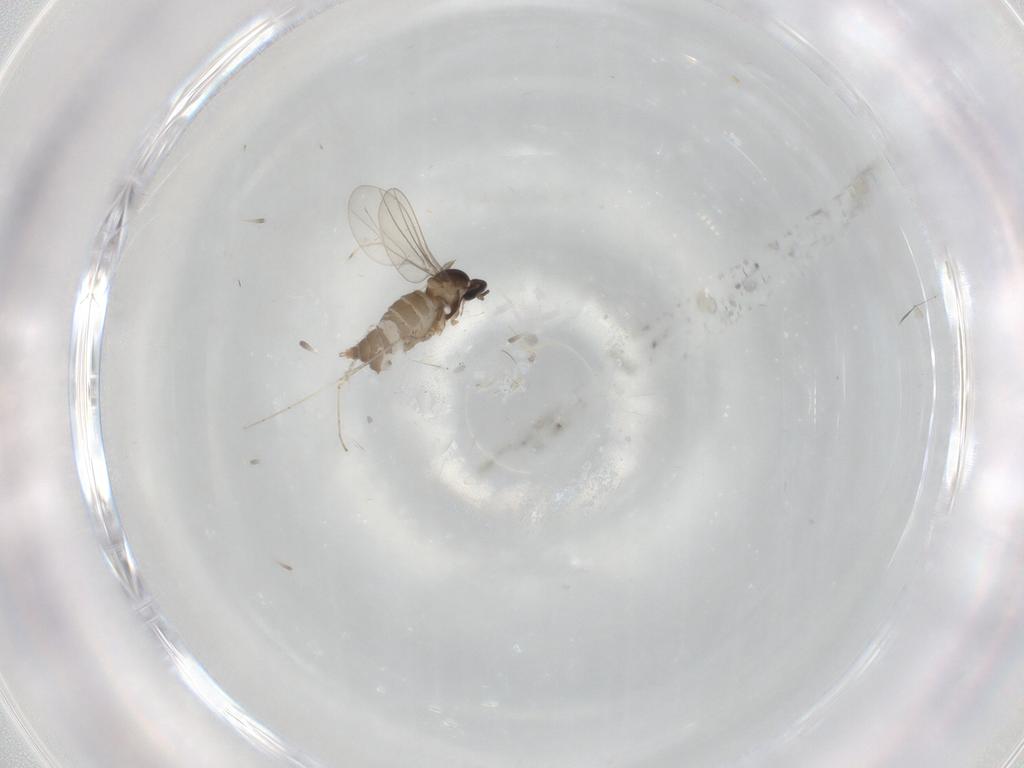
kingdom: Animalia
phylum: Arthropoda
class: Insecta
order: Diptera
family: Cecidomyiidae
